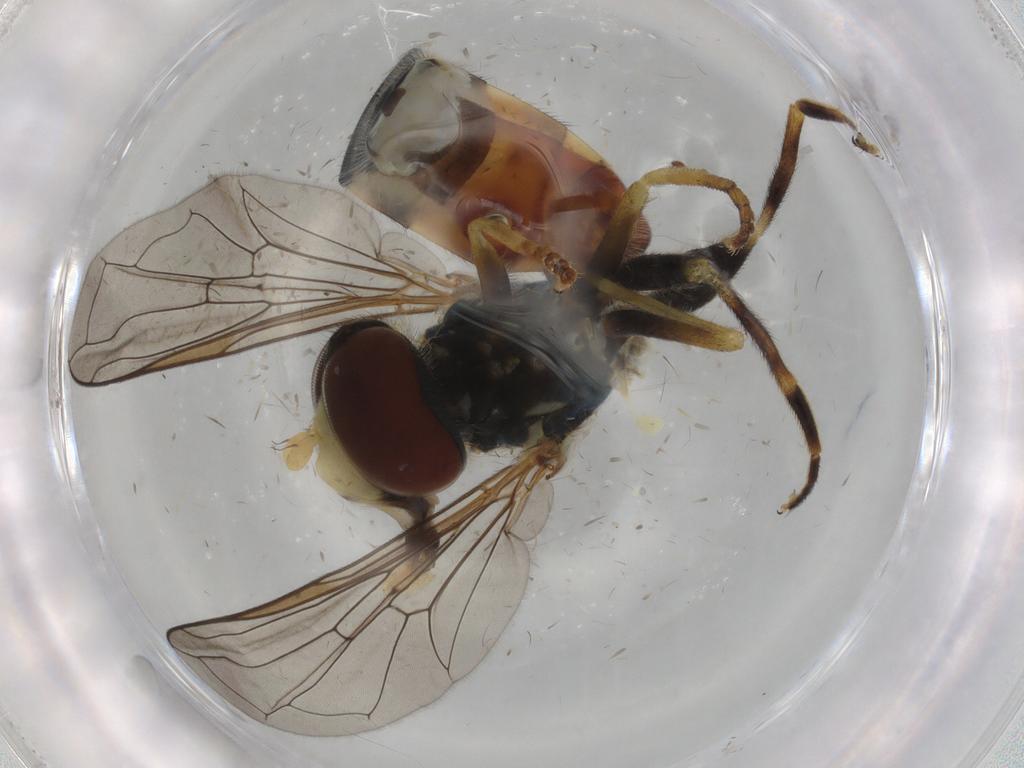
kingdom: Animalia
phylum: Arthropoda
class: Insecta
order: Diptera
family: Syrphidae
